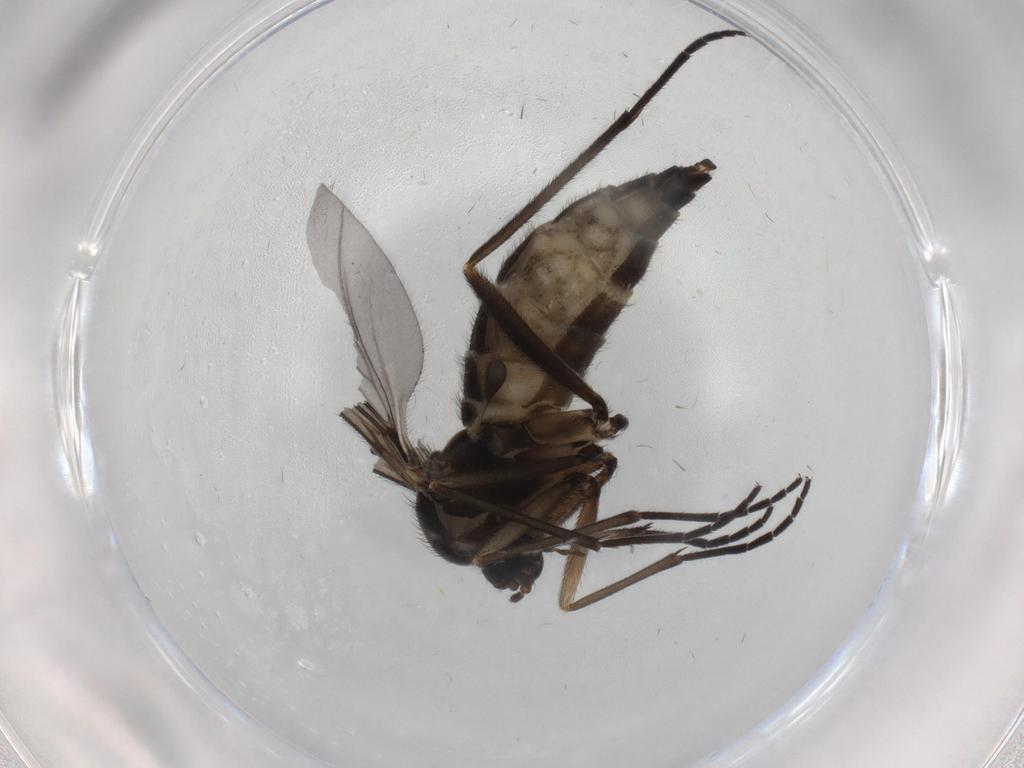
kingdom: Animalia
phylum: Arthropoda
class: Insecta
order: Diptera
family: Sciaridae
